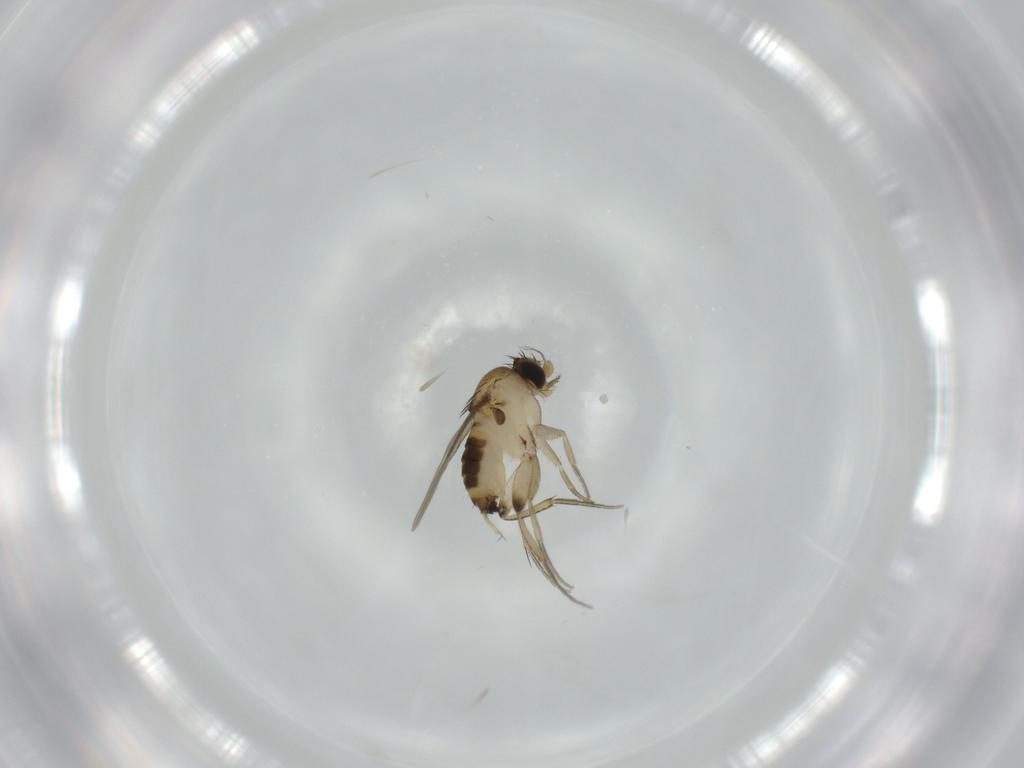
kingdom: Animalia
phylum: Arthropoda
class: Insecta
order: Diptera
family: Phoridae
